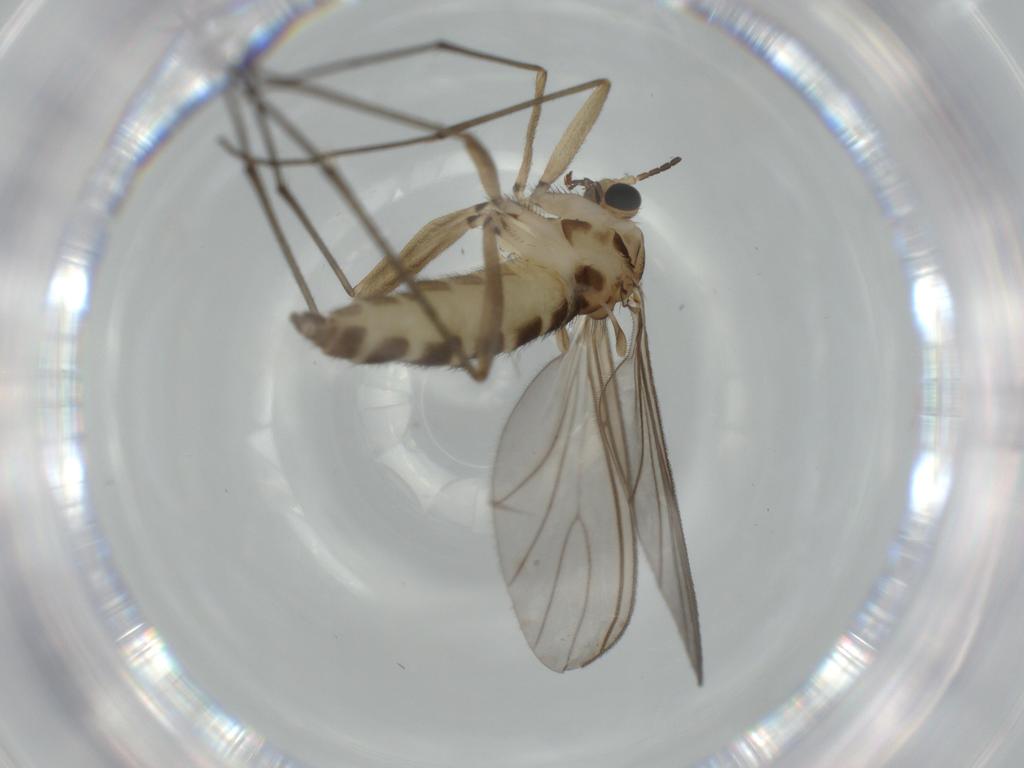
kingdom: Animalia
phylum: Arthropoda
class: Insecta
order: Diptera
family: Sciaridae
